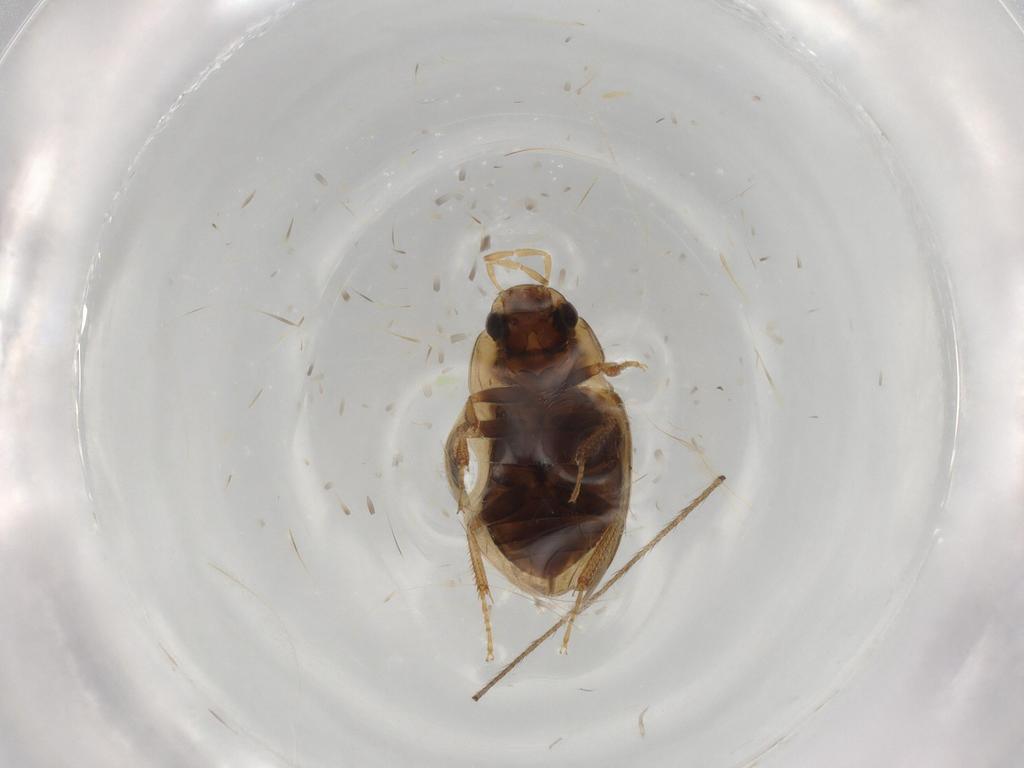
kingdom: Animalia
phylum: Arthropoda
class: Insecta
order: Coleoptera
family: Hydrophilidae
